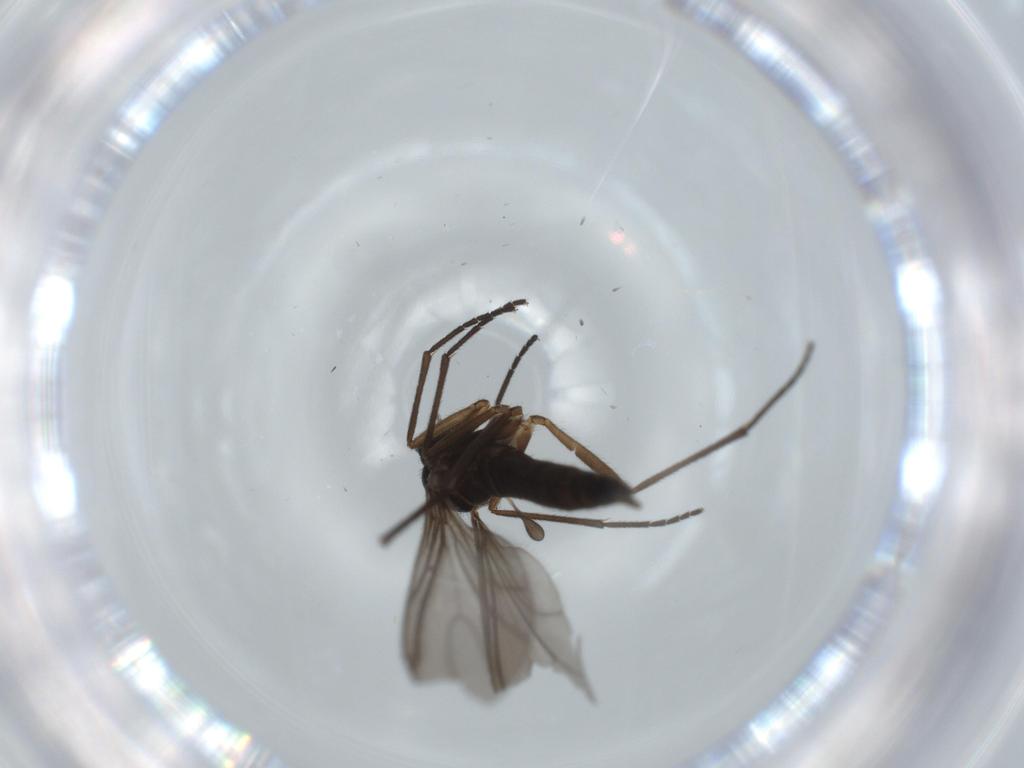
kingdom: Animalia
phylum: Arthropoda
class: Insecta
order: Diptera
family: Sciaridae
